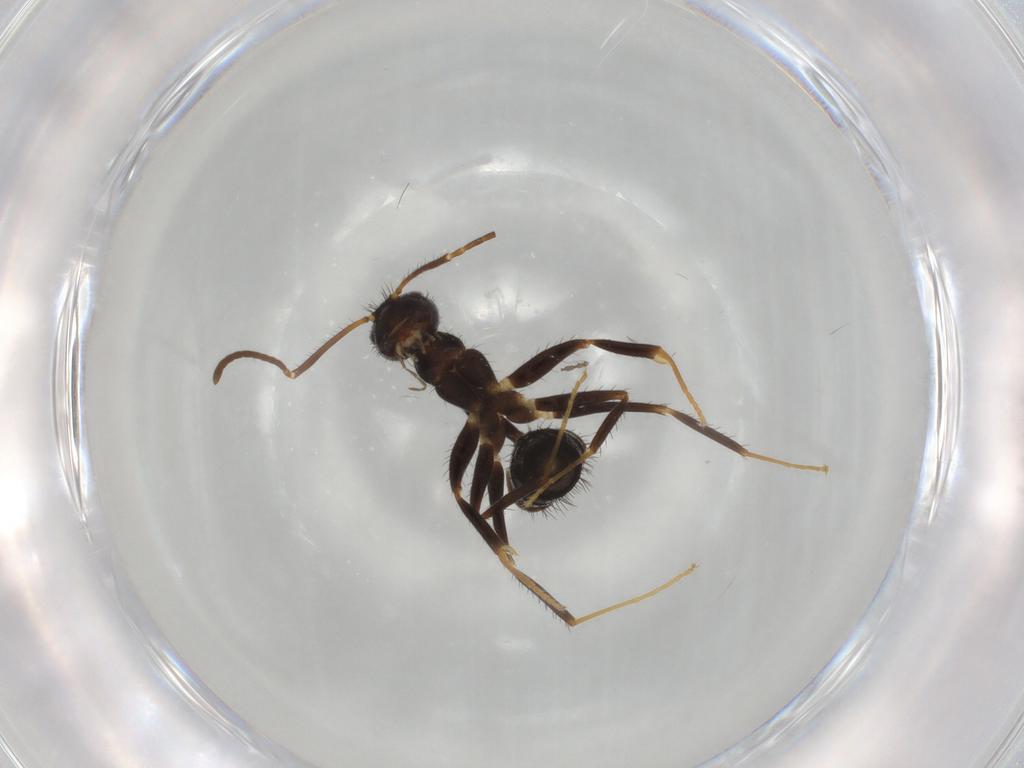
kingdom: Animalia
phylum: Arthropoda
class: Insecta
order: Hymenoptera
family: Formicidae
